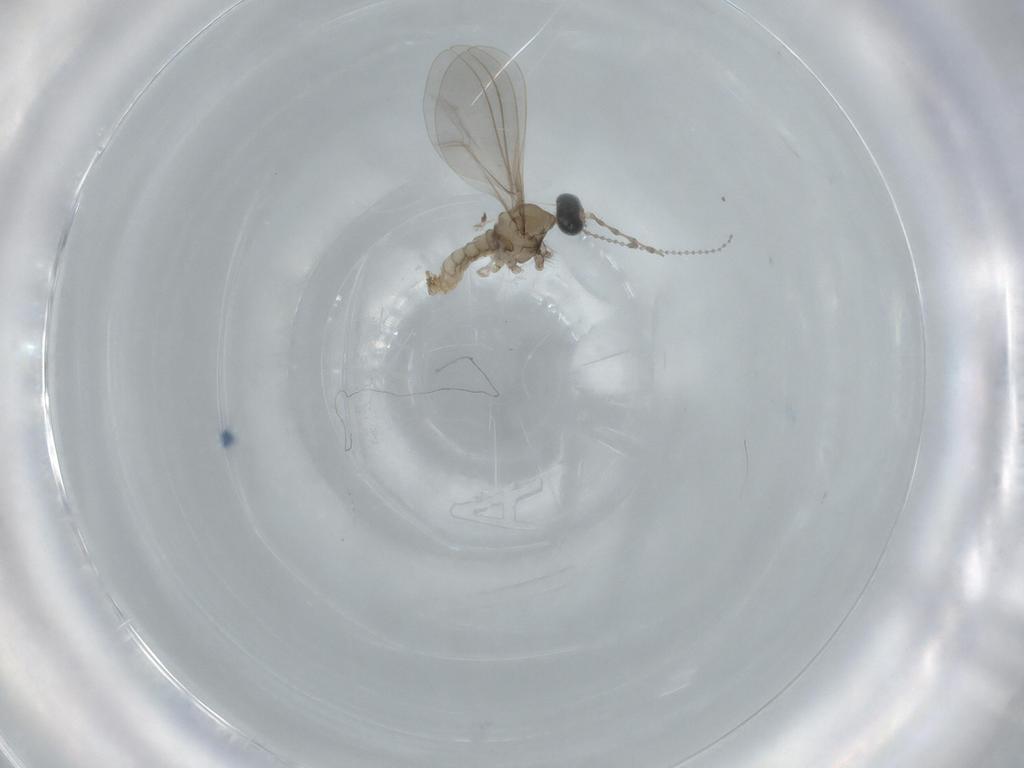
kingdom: Animalia
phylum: Arthropoda
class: Insecta
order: Diptera
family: Cecidomyiidae
